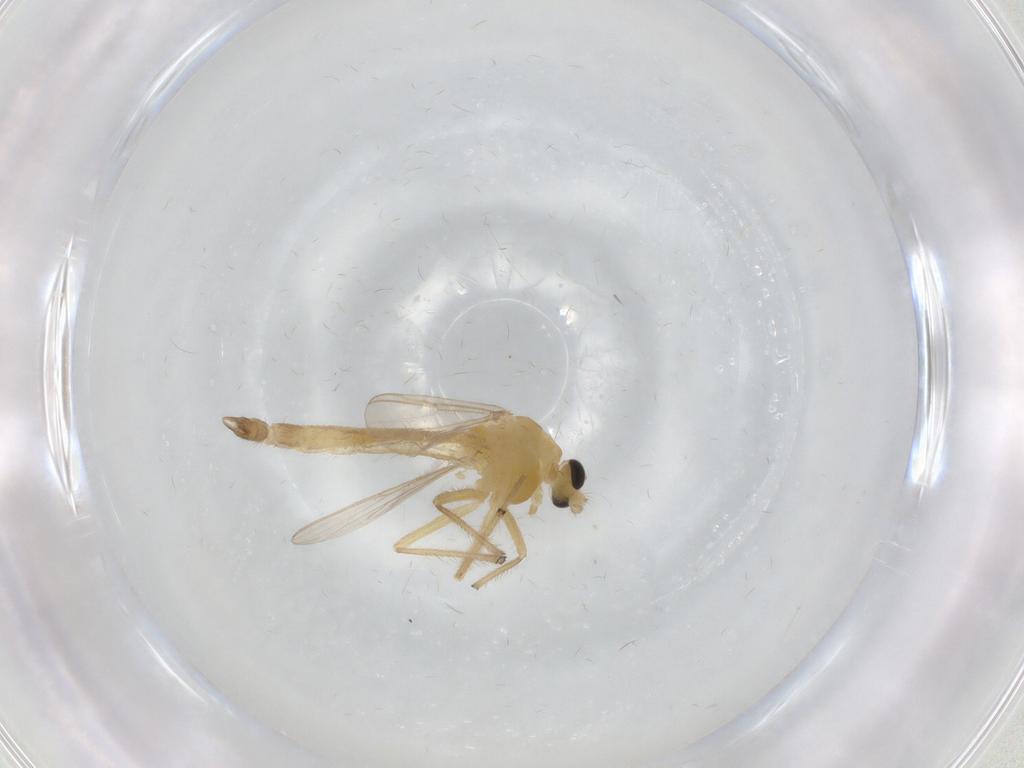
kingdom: Animalia
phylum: Arthropoda
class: Insecta
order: Diptera
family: Chironomidae
